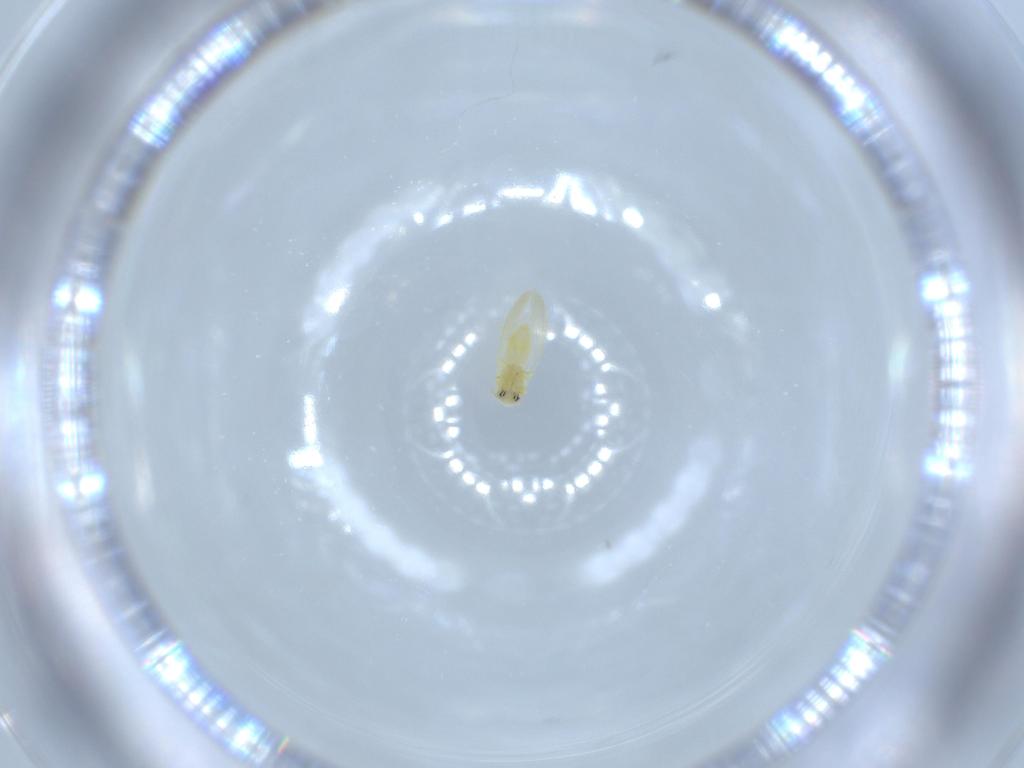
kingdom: Animalia
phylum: Arthropoda
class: Insecta
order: Hemiptera
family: Aleyrodidae
